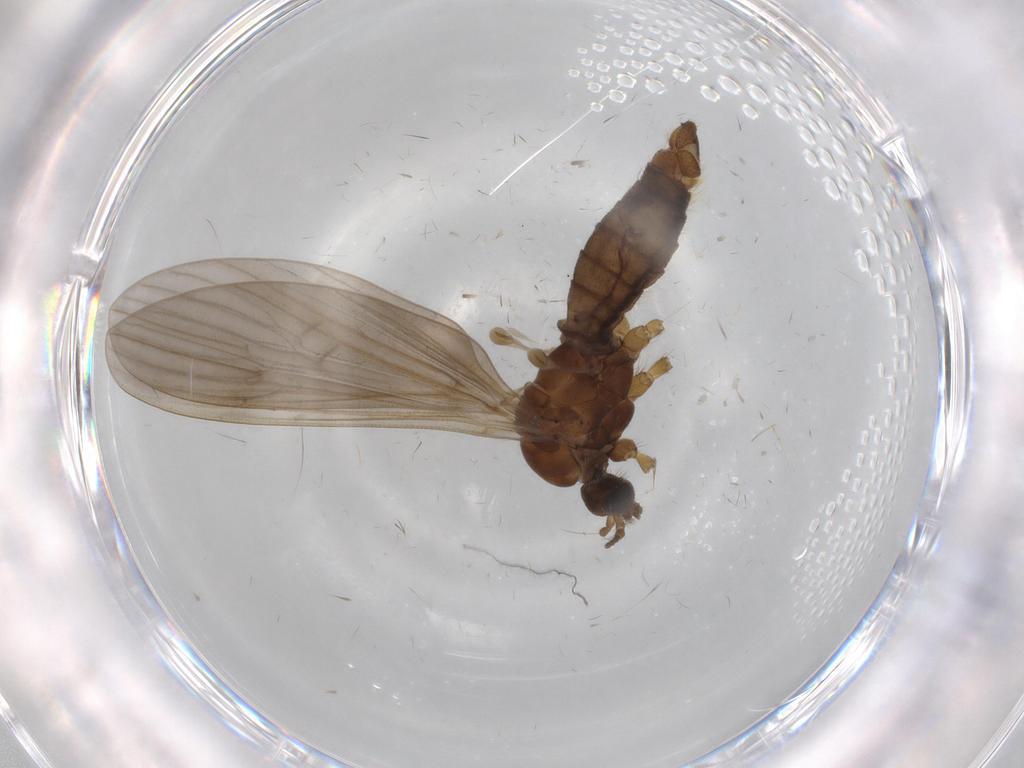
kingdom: Animalia
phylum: Arthropoda
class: Insecta
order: Diptera
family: Limoniidae
